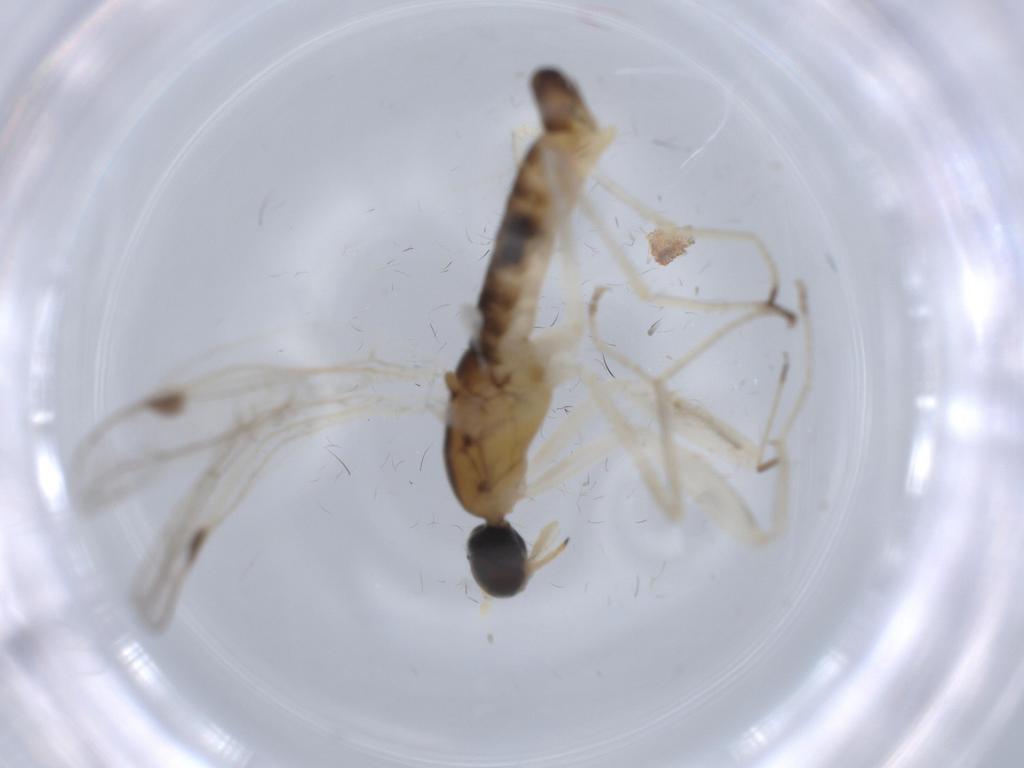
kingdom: Animalia
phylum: Arthropoda
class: Insecta
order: Diptera
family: Empididae
